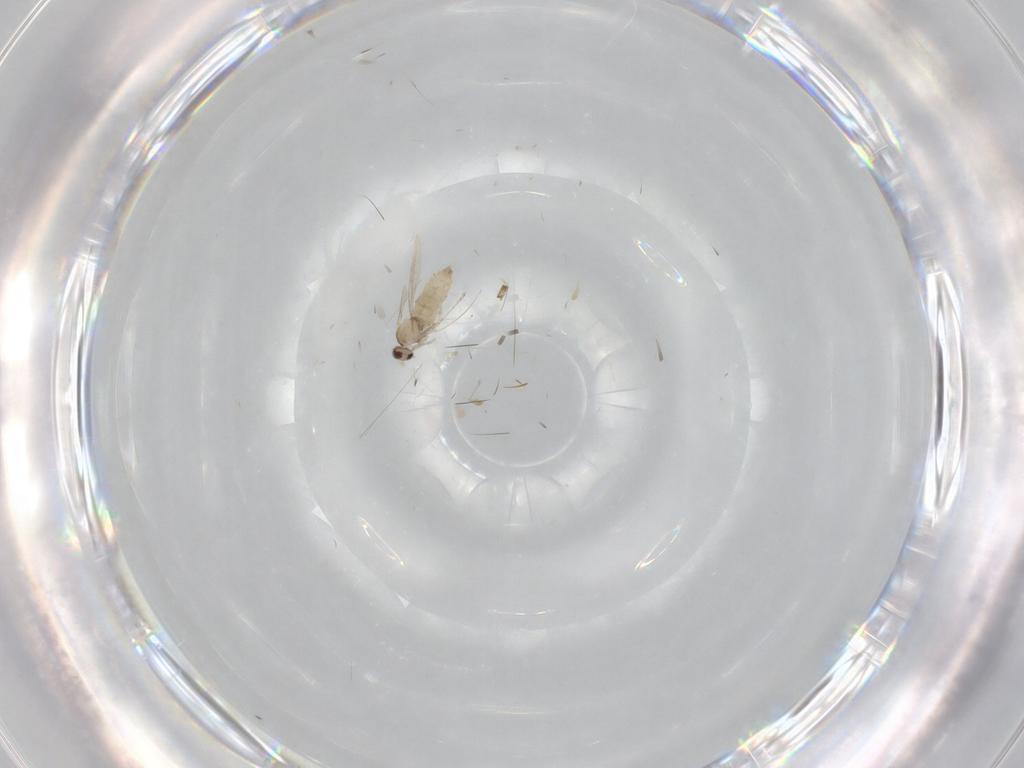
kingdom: Animalia
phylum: Arthropoda
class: Insecta
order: Diptera
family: Cecidomyiidae
